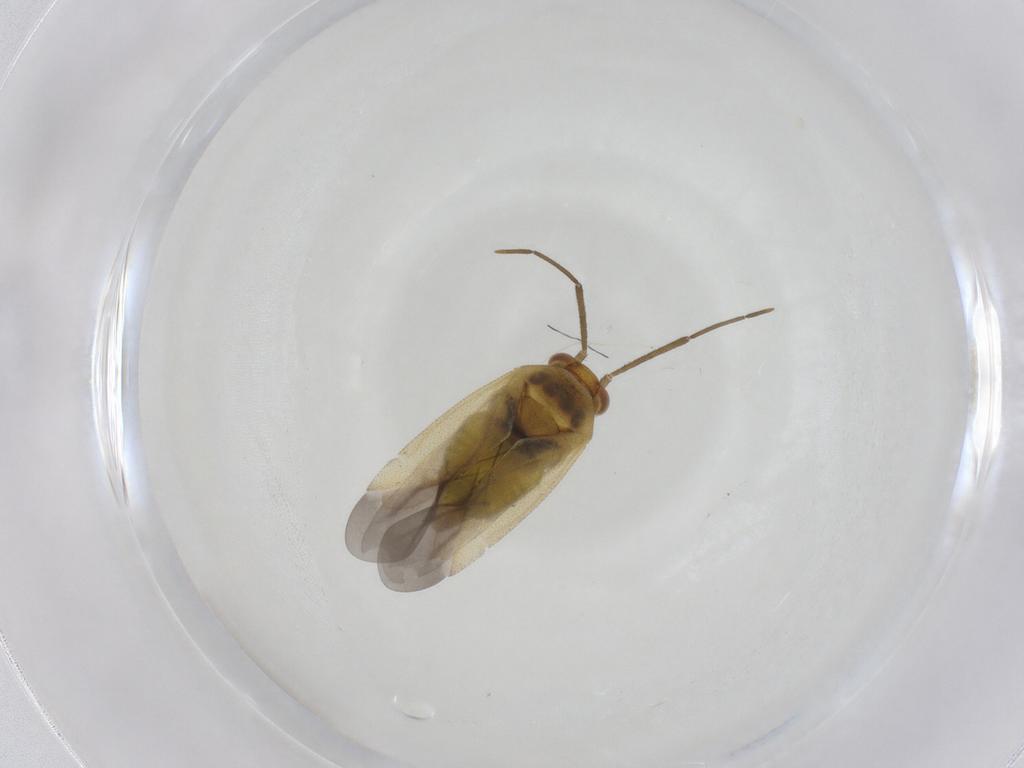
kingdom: Animalia
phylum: Arthropoda
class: Insecta
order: Hemiptera
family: Miridae
